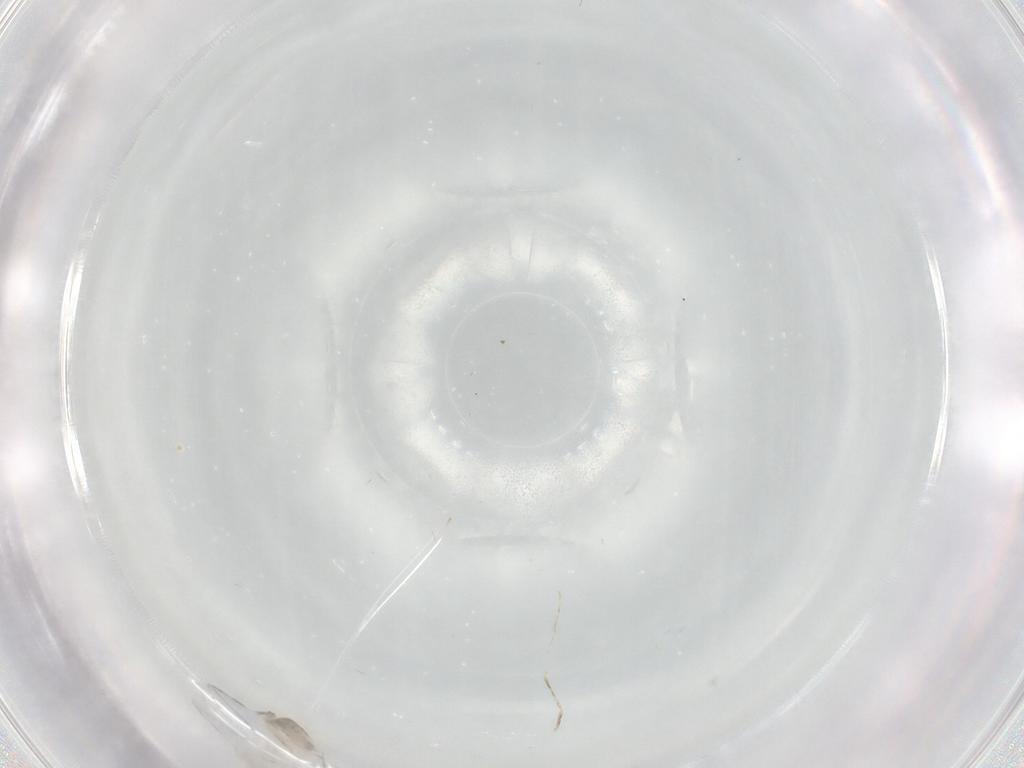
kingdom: Animalia
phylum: Arthropoda
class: Insecta
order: Diptera
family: Cecidomyiidae
